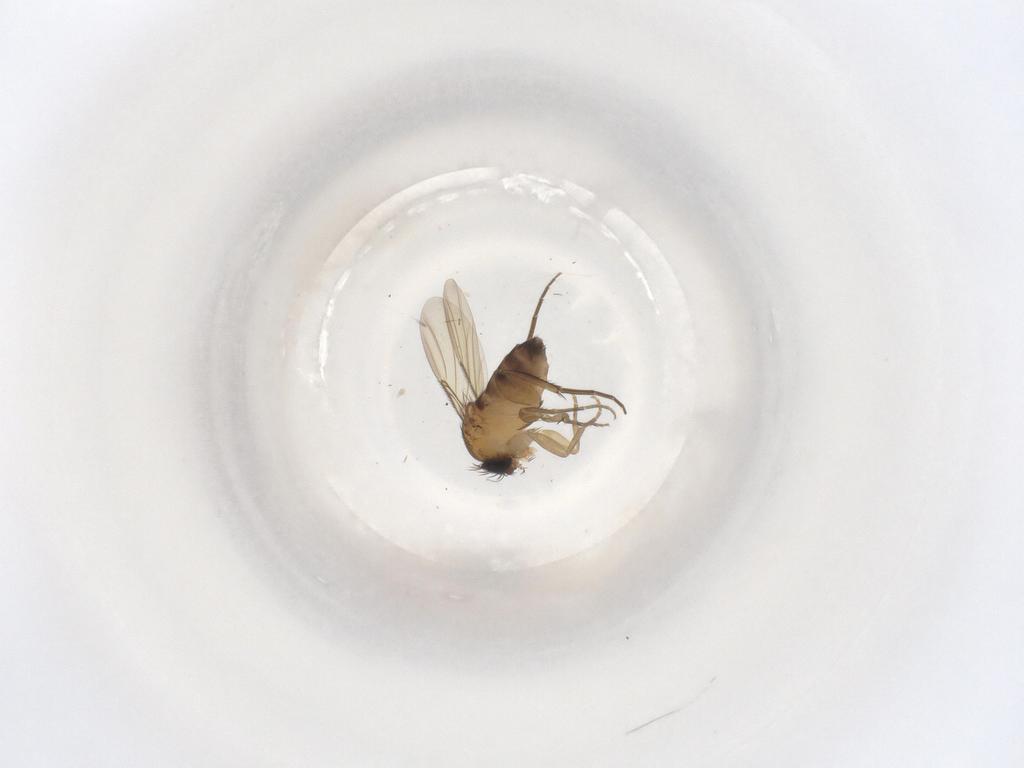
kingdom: Animalia
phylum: Arthropoda
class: Insecta
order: Diptera
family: Phoridae
